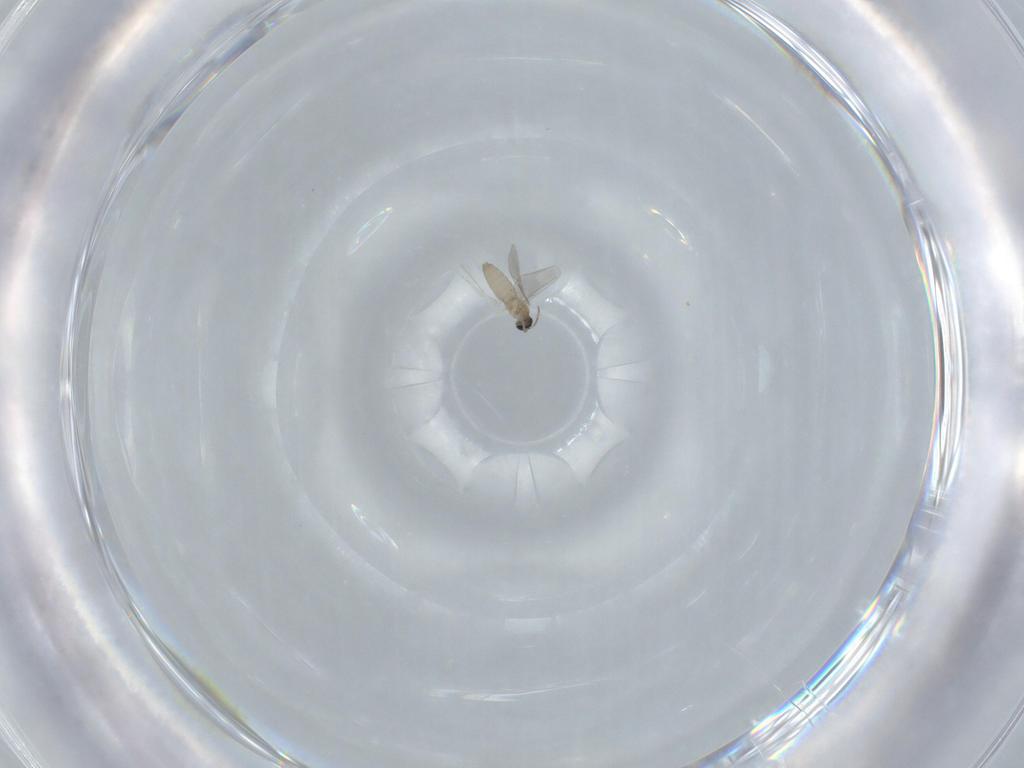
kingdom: Animalia
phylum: Arthropoda
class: Insecta
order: Diptera
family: Cecidomyiidae
